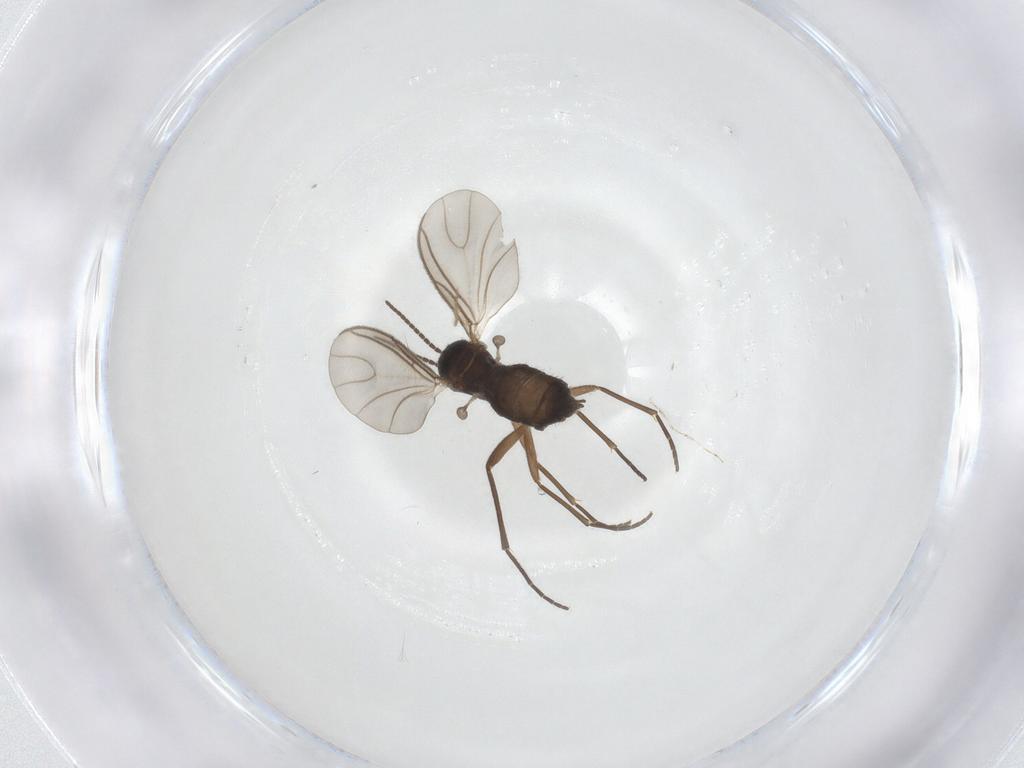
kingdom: Animalia
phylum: Arthropoda
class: Insecta
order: Diptera
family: Sciaridae
